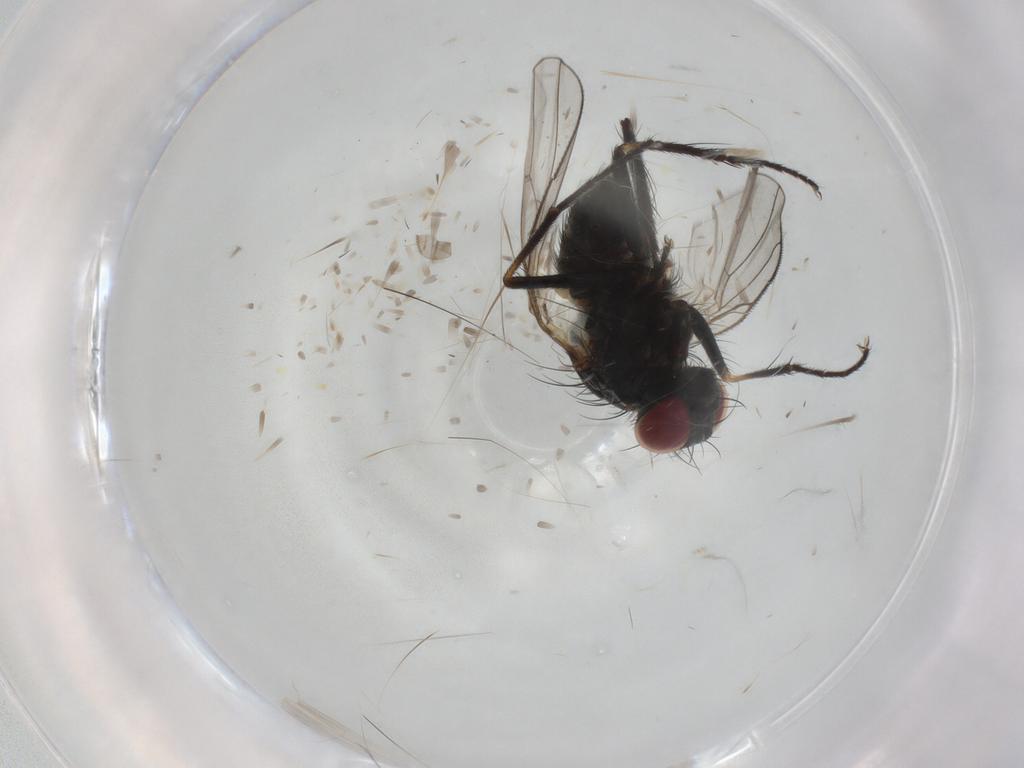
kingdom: Animalia
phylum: Arthropoda
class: Insecta
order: Diptera
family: Muscidae
